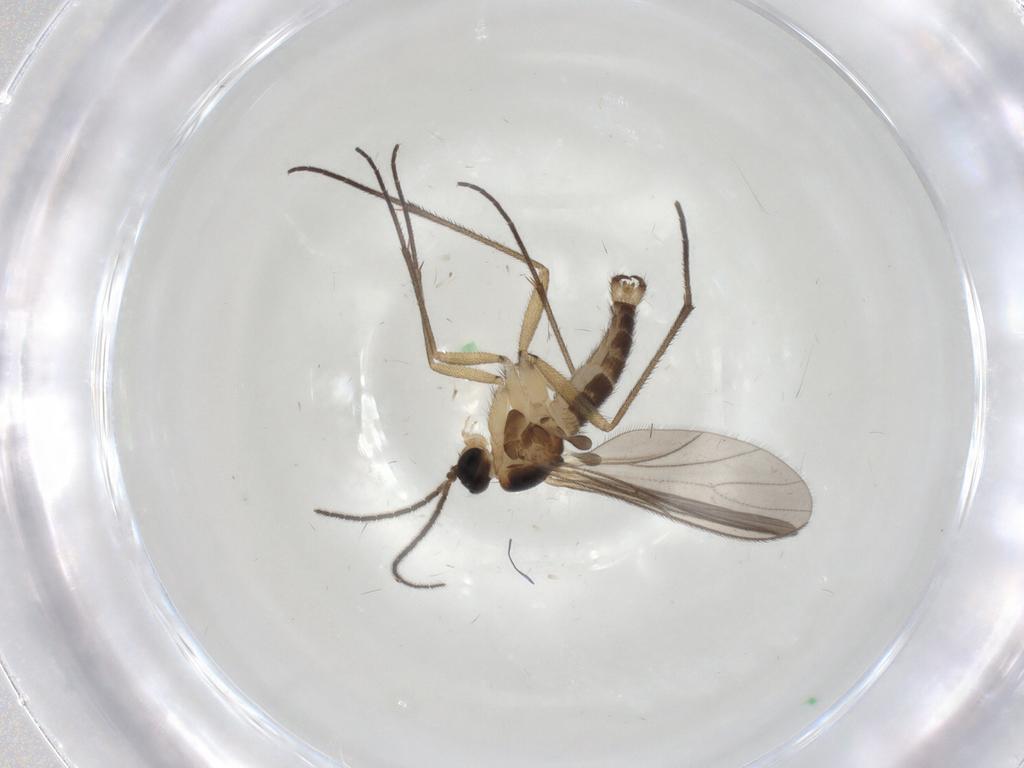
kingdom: Animalia
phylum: Arthropoda
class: Insecta
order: Diptera
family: Sciaridae
